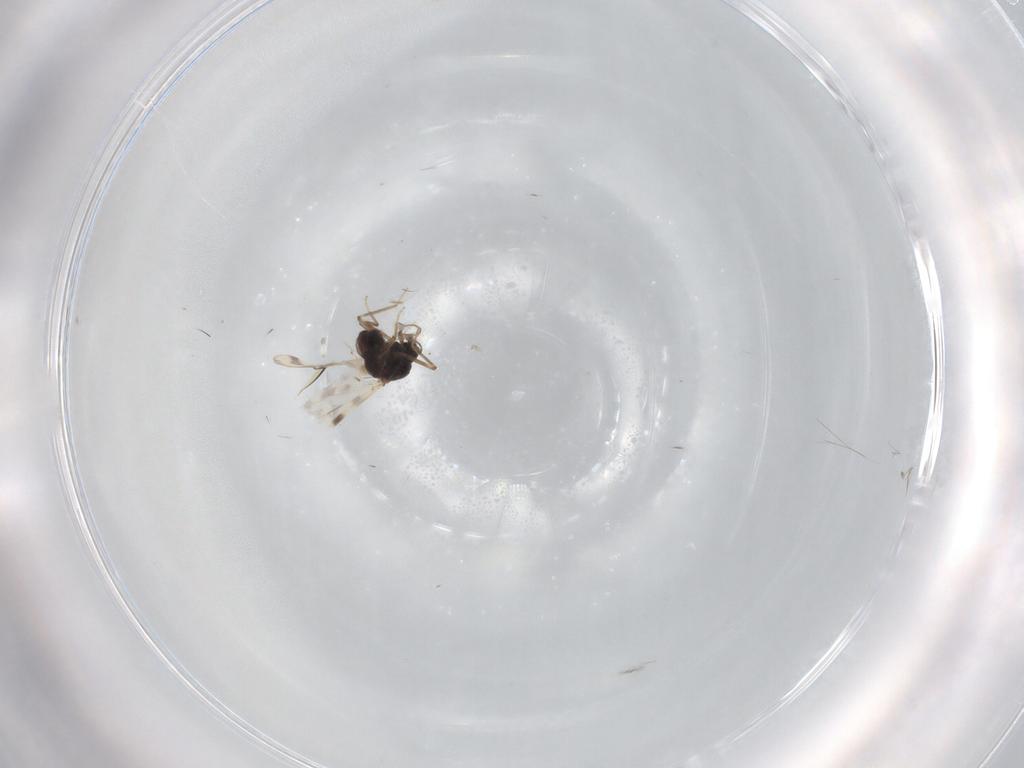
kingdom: Animalia
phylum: Arthropoda
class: Insecta
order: Diptera
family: Platystomatidae
